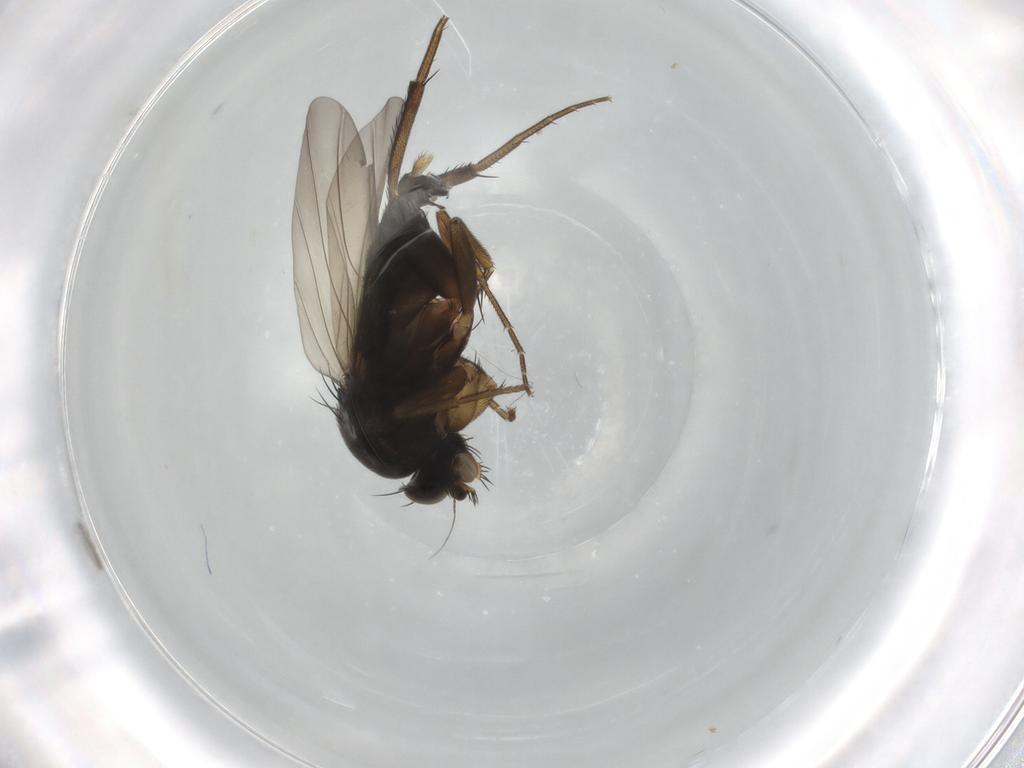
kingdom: Animalia
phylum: Arthropoda
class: Insecta
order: Diptera
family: Phoridae
